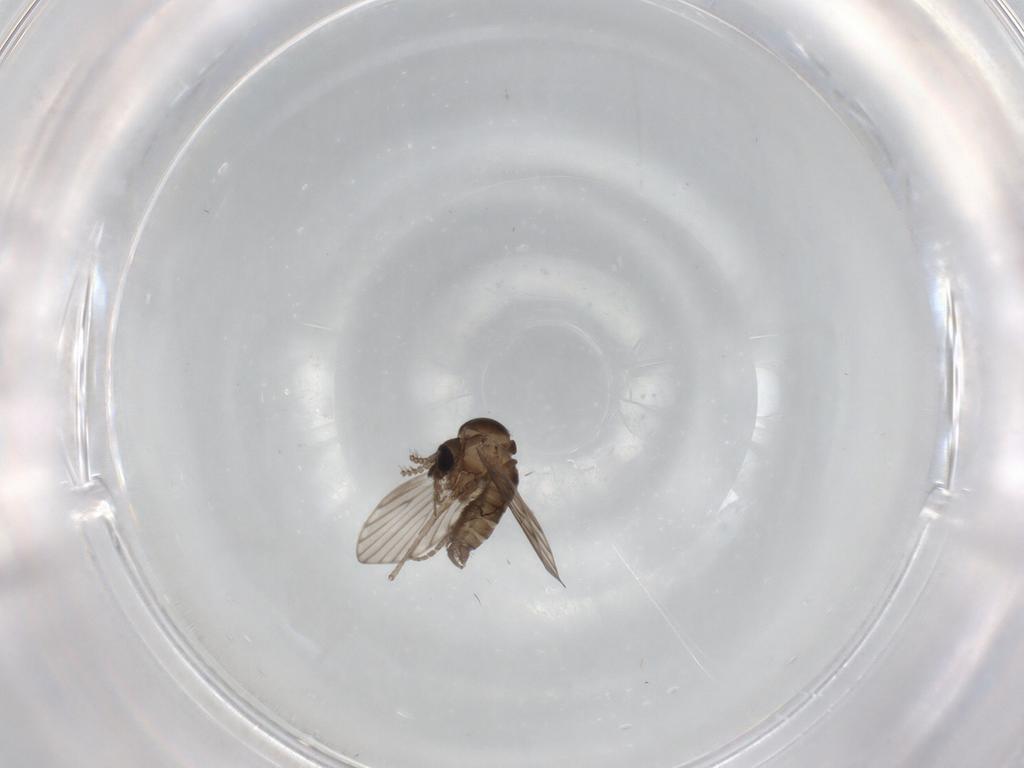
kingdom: Animalia
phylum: Arthropoda
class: Insecta
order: Diptera
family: Psychodidae
